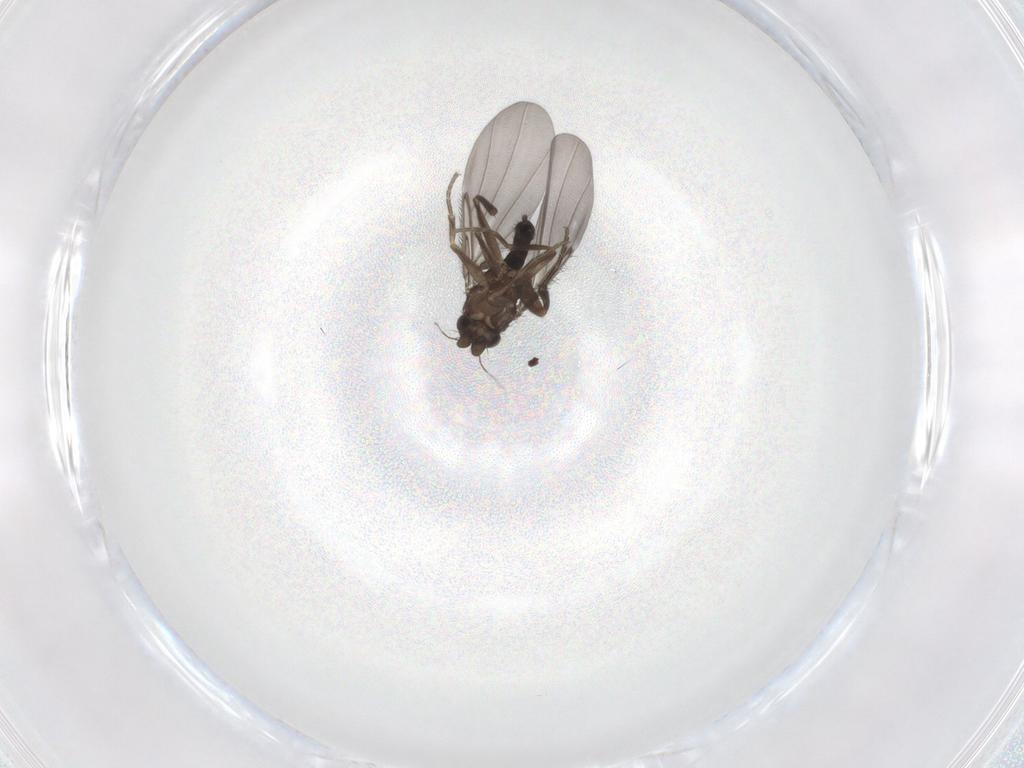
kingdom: Animalia
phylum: Arthropoda
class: Insecta
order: Diptera
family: Phoridae
